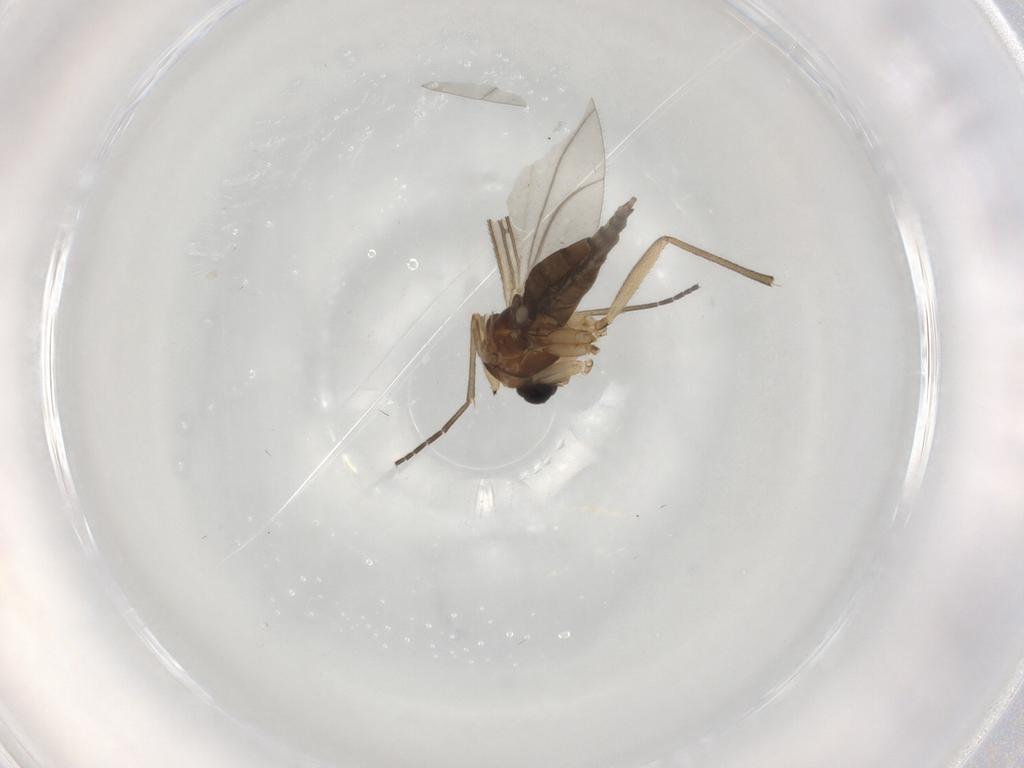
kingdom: Animalia
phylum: Arthropoda
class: Insecta
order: Diptera
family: Sciaridae
